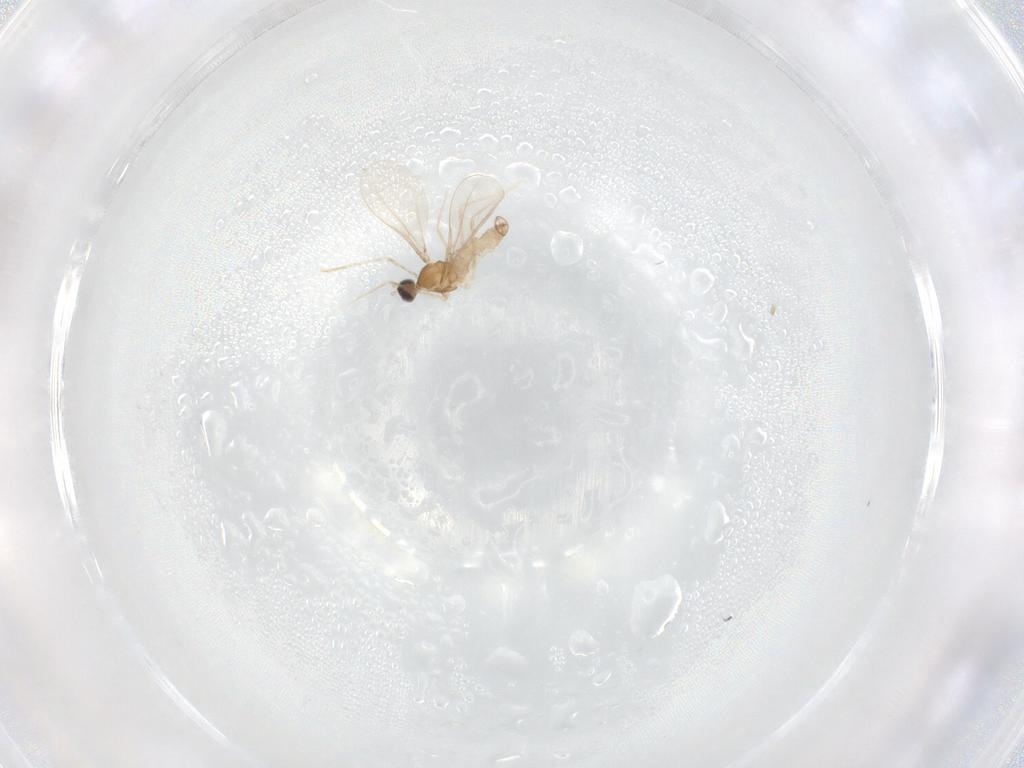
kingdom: Animalia
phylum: Arthropoda
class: Insecta
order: Diptera
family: Cecidomyiidae
